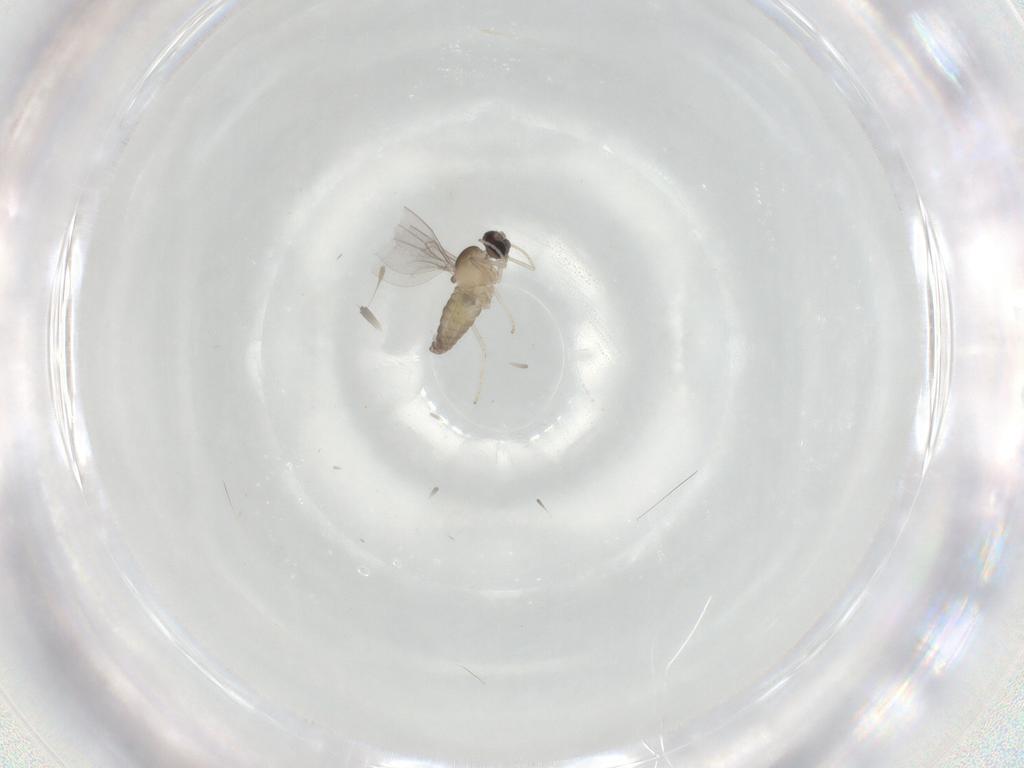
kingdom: Animalia
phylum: Arthropoda
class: Insecta
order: Diptera
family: Cecidomyiidae
